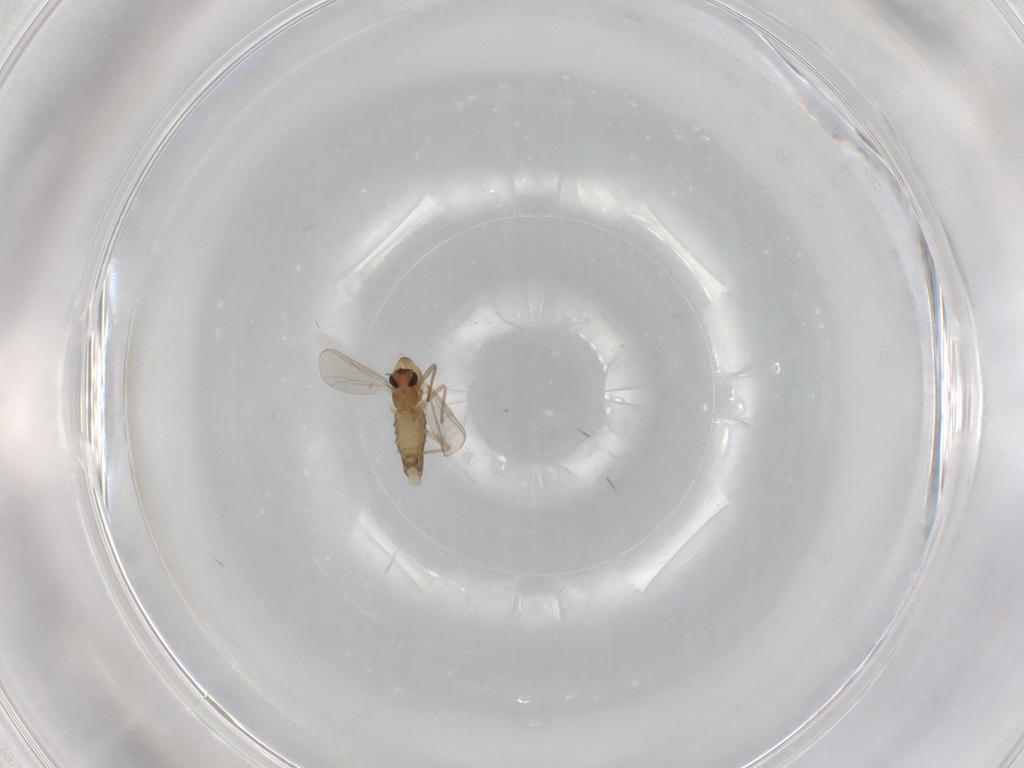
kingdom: Animalia
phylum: Arthropoda
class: Insecta
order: Diptera
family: Chironomidae
